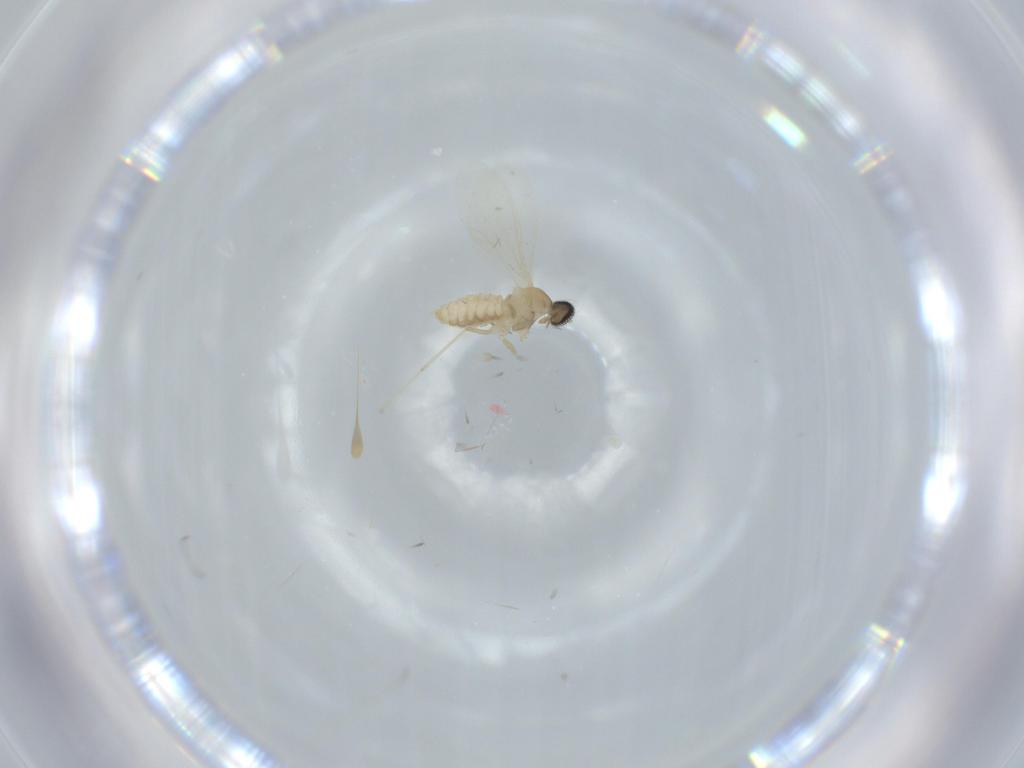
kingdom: Animalia
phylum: Arthropoda
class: Insecta
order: Diptera
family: Cecidomyiidae
